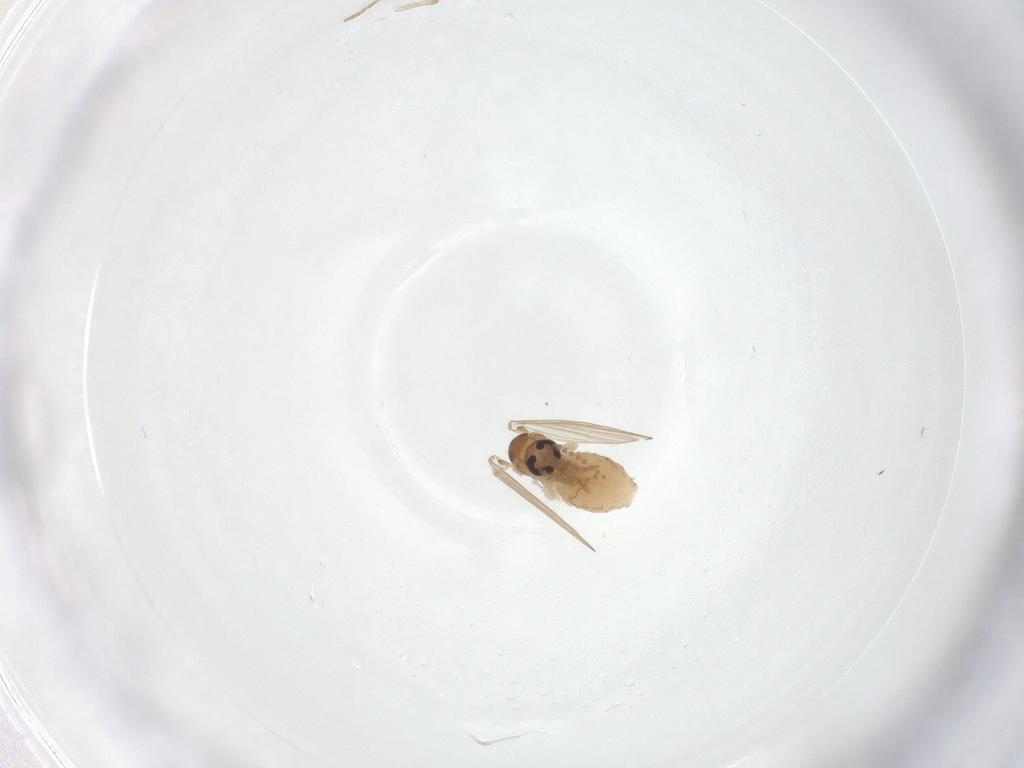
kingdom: Animalia
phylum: Arthropoda
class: Insecta
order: Diptera
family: Psychodidae
